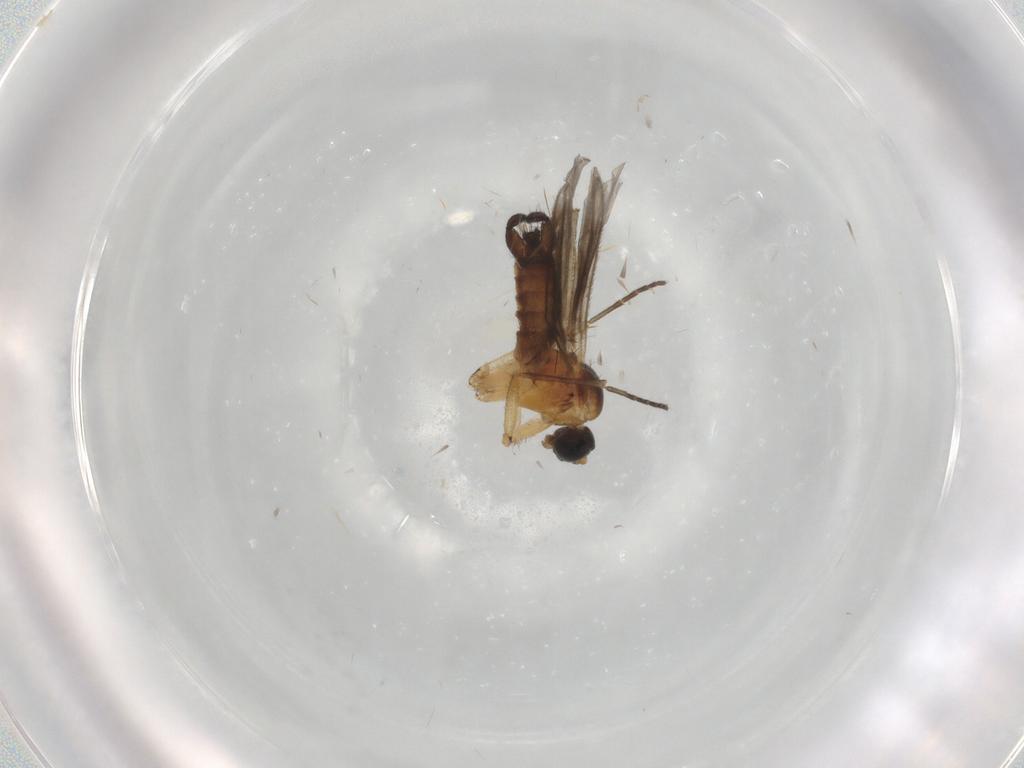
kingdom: Animalia
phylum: Arthropoda
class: Insecta
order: Diptera
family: Sciaridae
